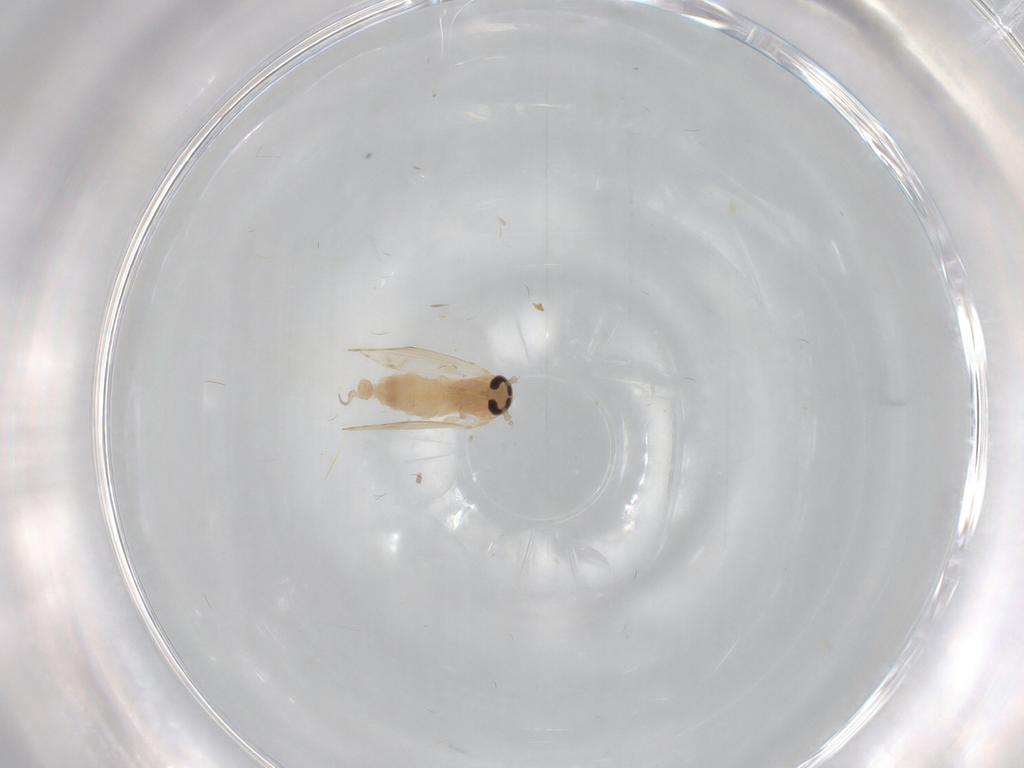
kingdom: Animalia
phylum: Arthropoda
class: Insecta
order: Diptera
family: Psychodidae
